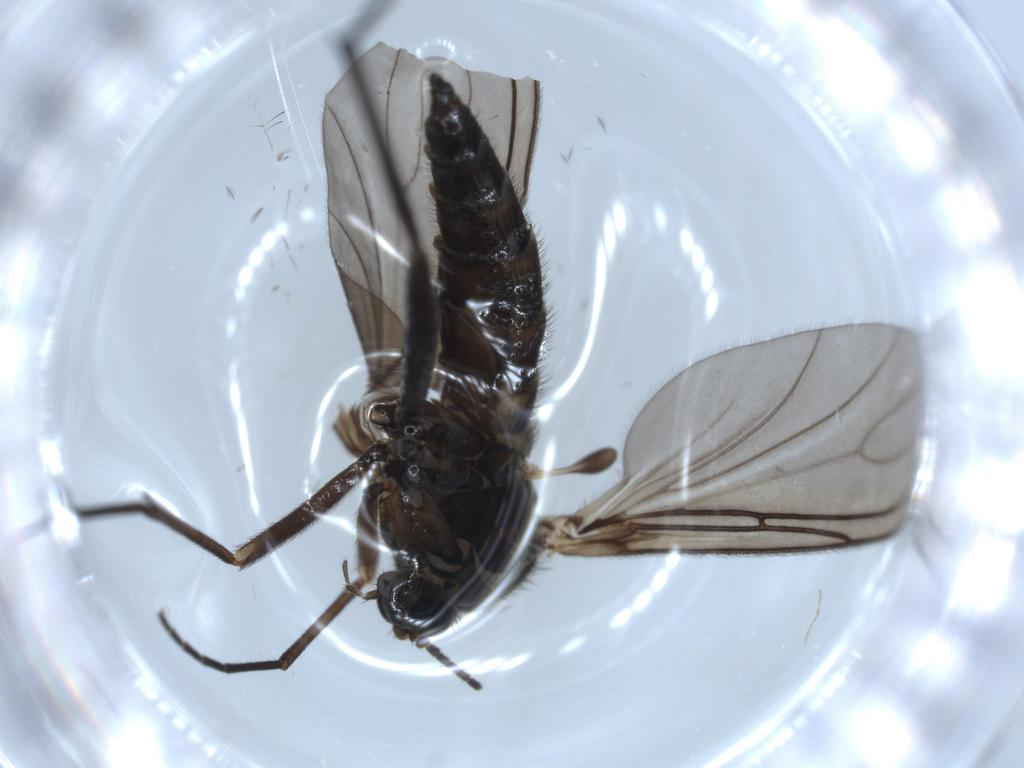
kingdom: Animalia
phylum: Arthropoda
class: Insecta
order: Diptera
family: Sciaridae
